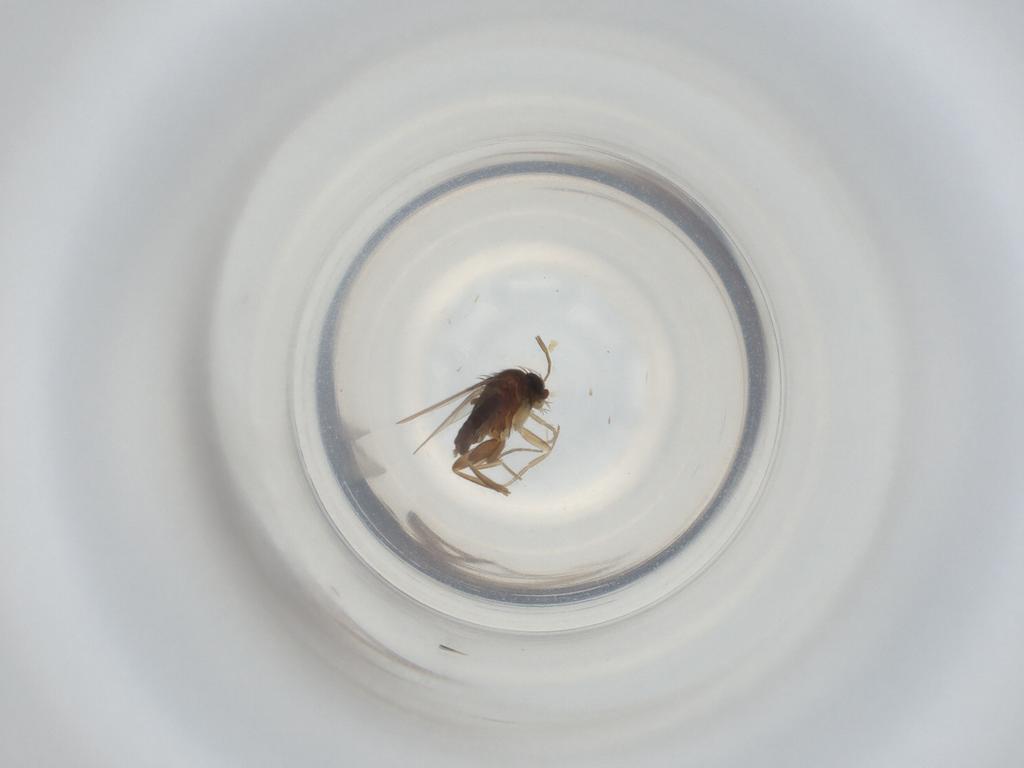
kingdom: Animalia
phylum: Arthropoda
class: Insecta
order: Diptera
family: Phoridae
